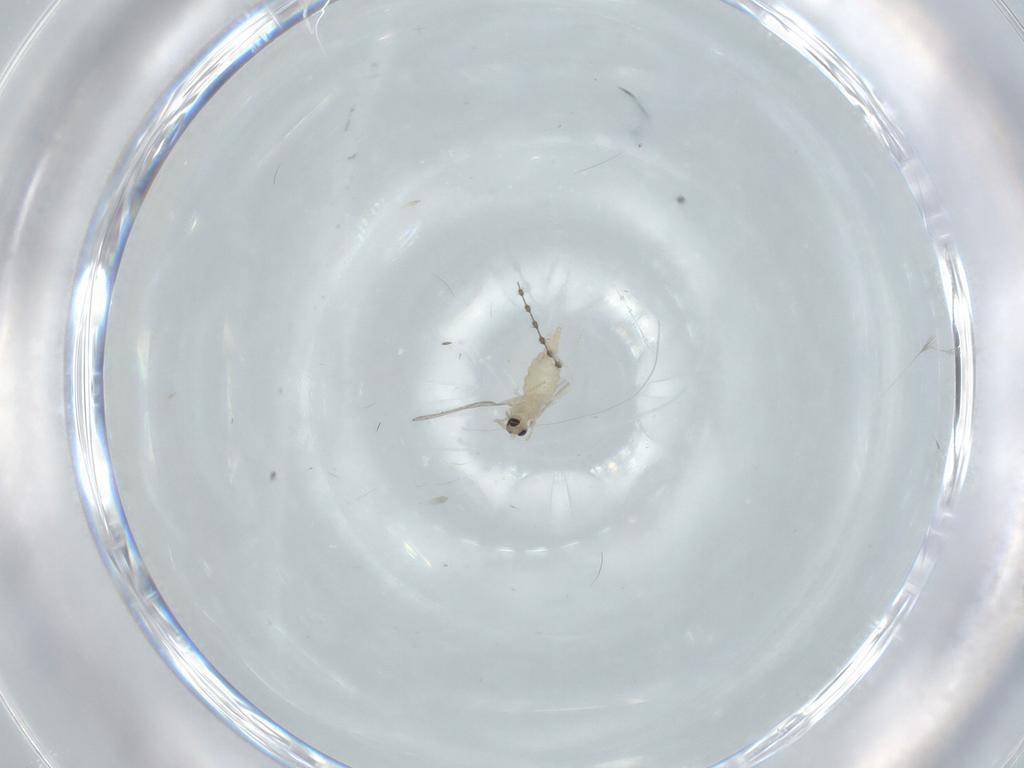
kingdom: Animalia
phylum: Arthropoda
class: Insecta
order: Diptera
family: Cecidomyiidae
